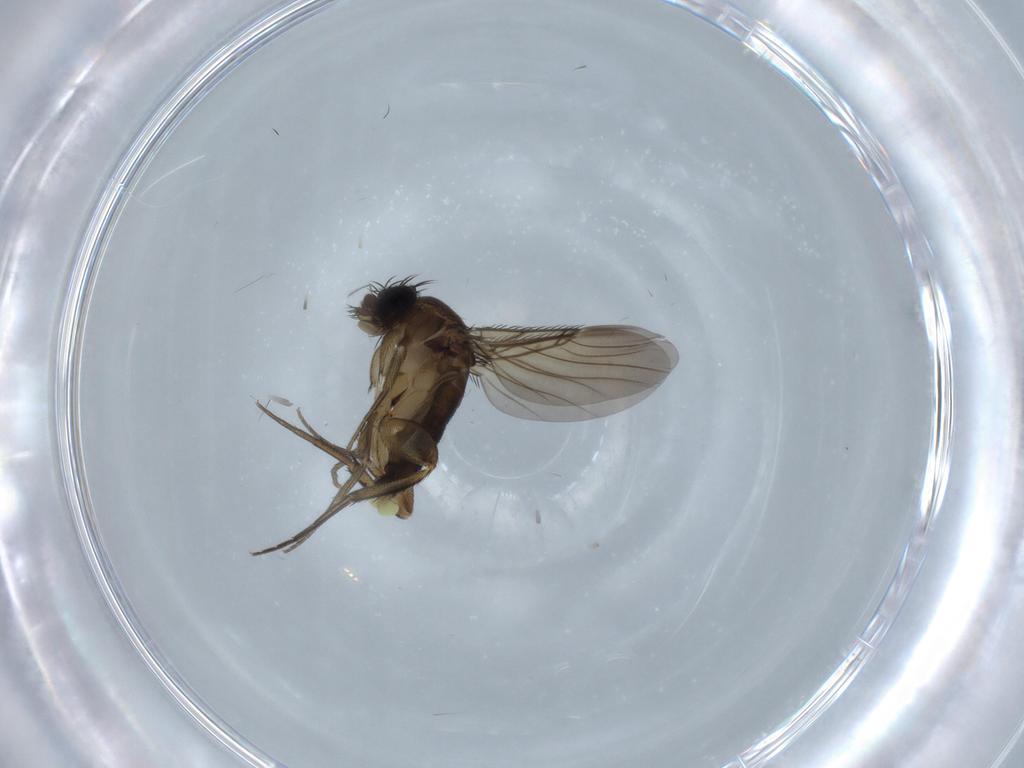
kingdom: Animalia
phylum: Arthropoda
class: Insecta
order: Diptera
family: Phoridae
